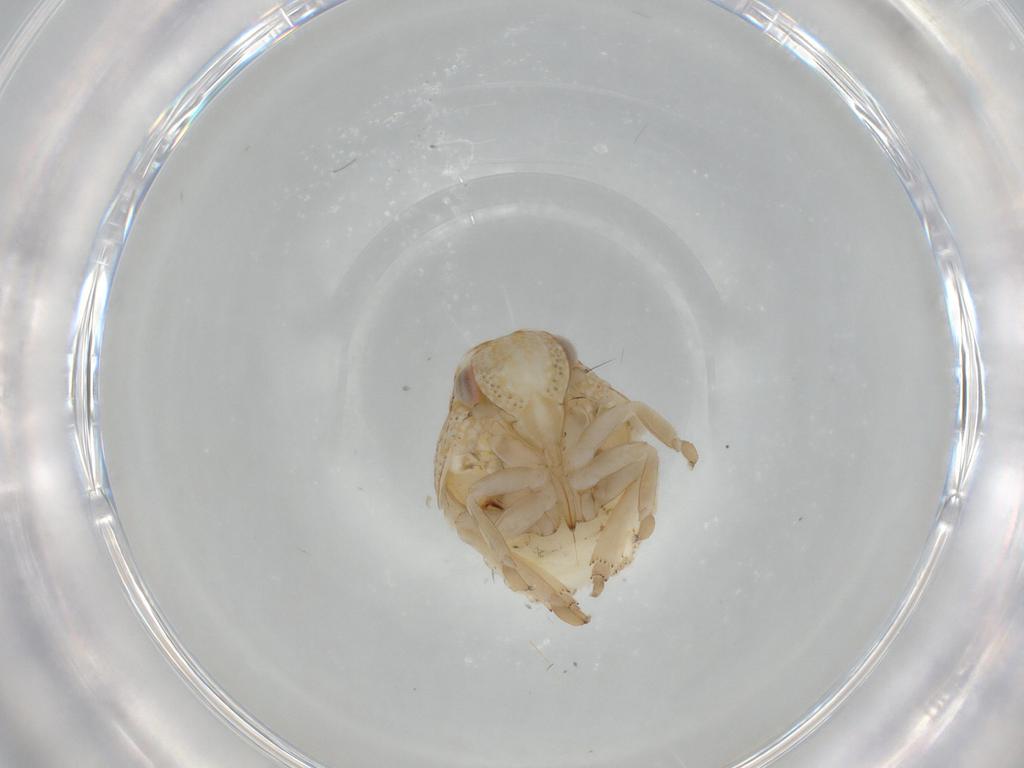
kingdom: Animalia
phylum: Arthropoda
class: Insecta
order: Hemiptera
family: Acanaloniidae
